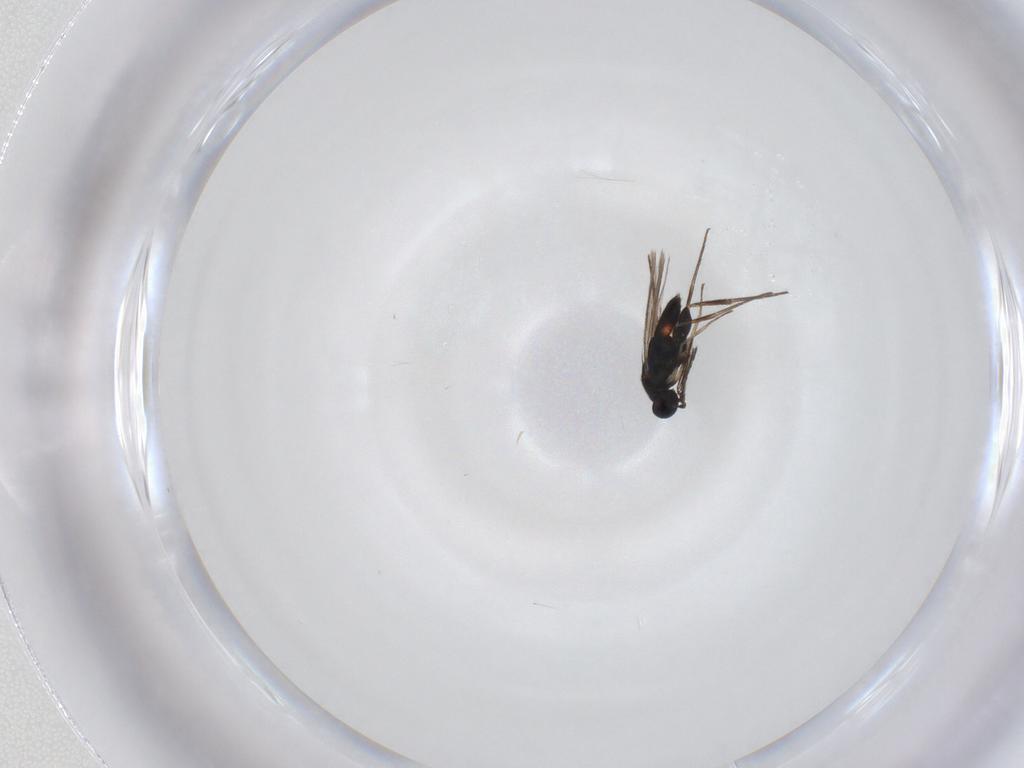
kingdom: Animalia
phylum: Arthropoda
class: Insecta
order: Hymenoptera
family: Eulophidae
